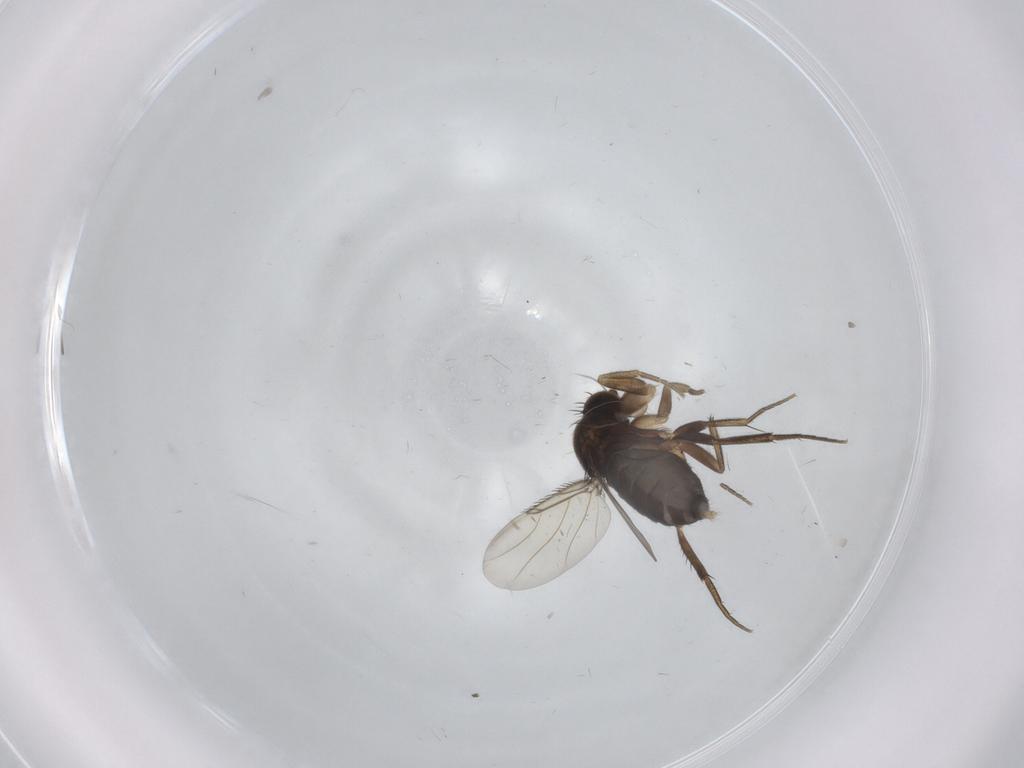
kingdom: Animalia
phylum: Arthropoda
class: Insecta
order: Diptera
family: Phoridae
